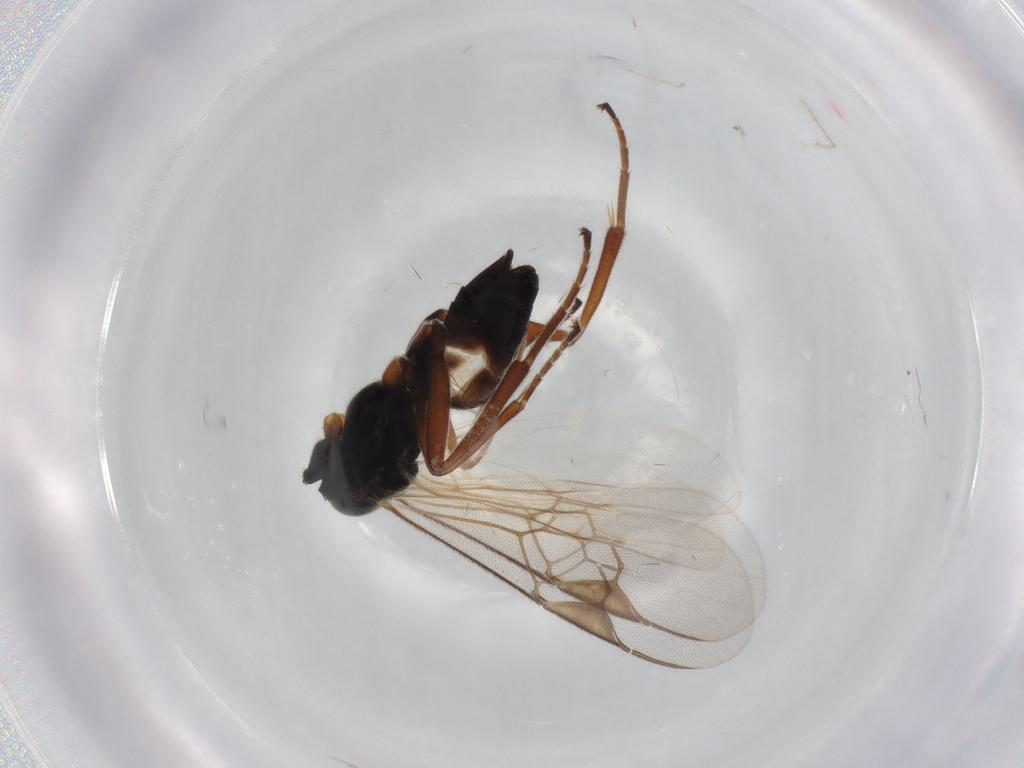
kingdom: Animalia
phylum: Arthropoda
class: Insecta
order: Hymenoptera
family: Braconidae
